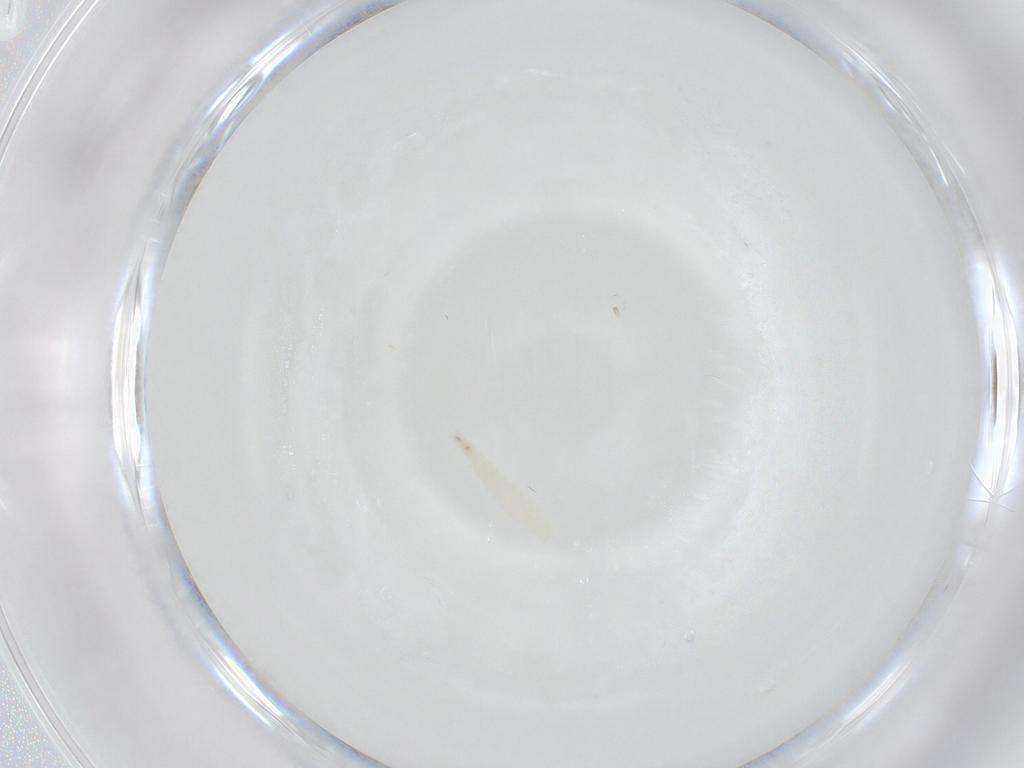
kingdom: Animalia
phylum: Arthropoda
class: Insecta
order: Diptera
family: Sarcophagidae
